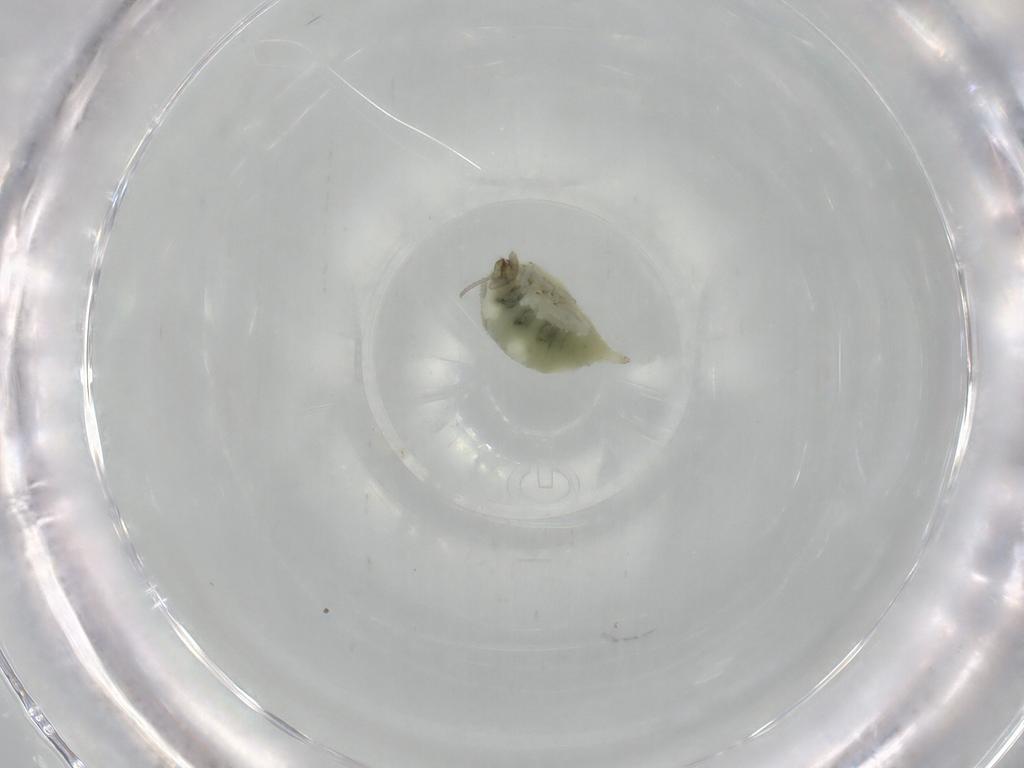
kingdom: Animalia
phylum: Arthropoda
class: Insecta
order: Neuroptera
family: Coniopterygidae
